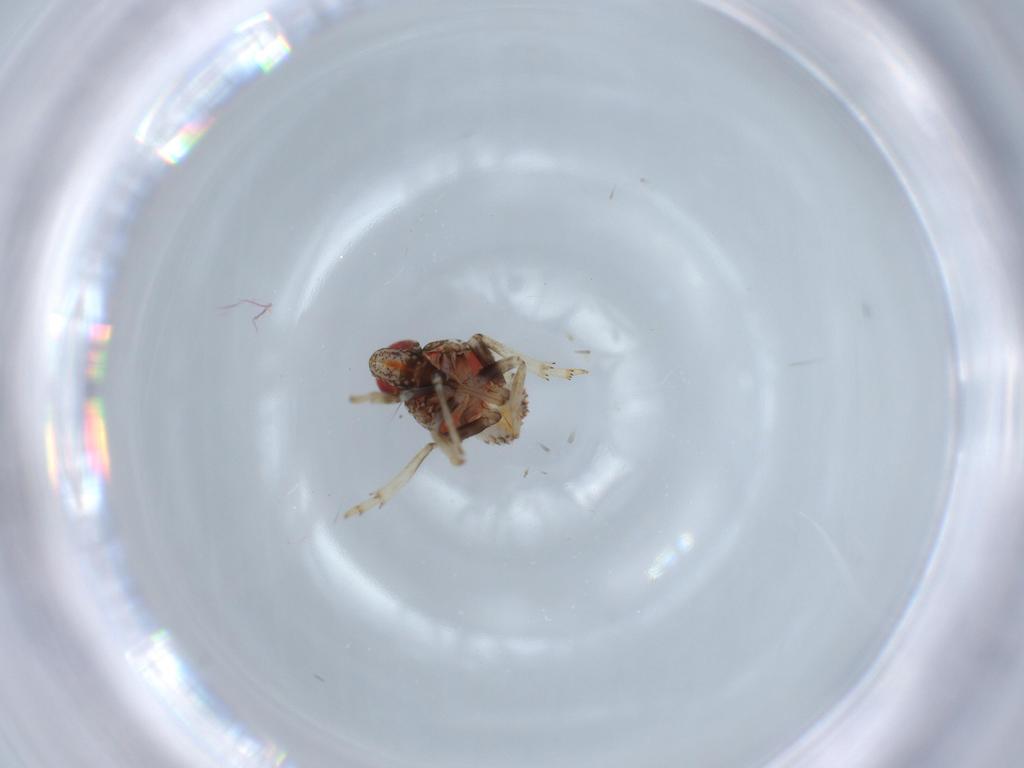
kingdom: Animalia
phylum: Arthropoda
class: Insecta
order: Hemiptera
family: Issidae
